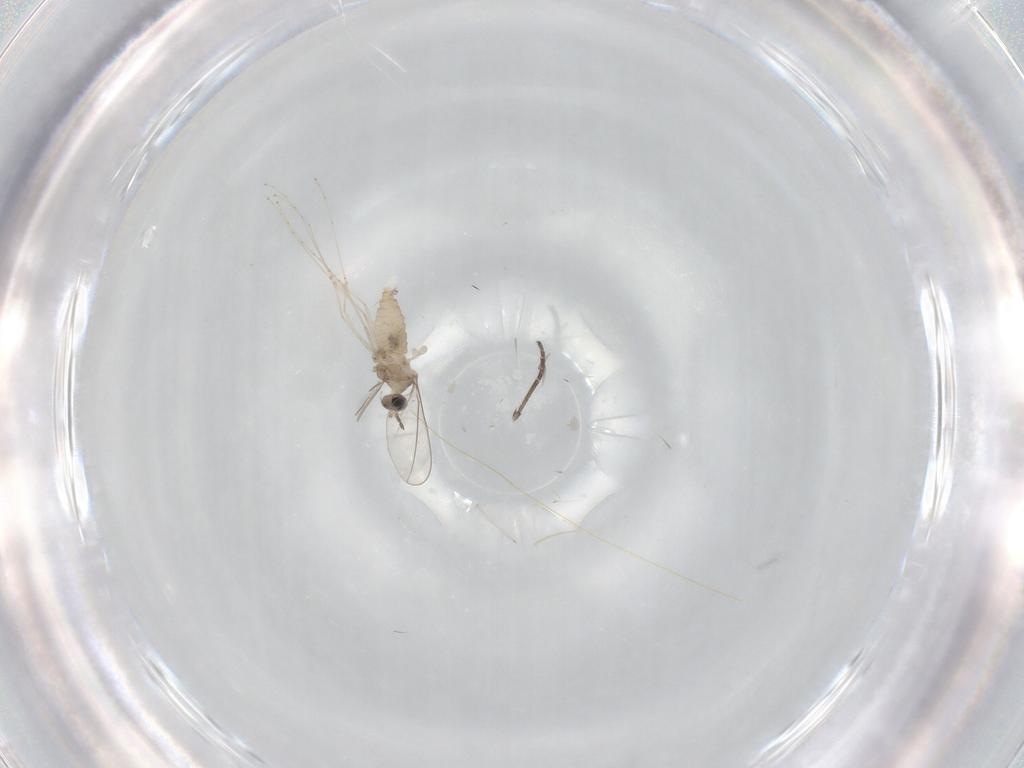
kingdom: Animalia
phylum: Arthropoda
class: Insecta
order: Diptera
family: Cecidomyiidae
